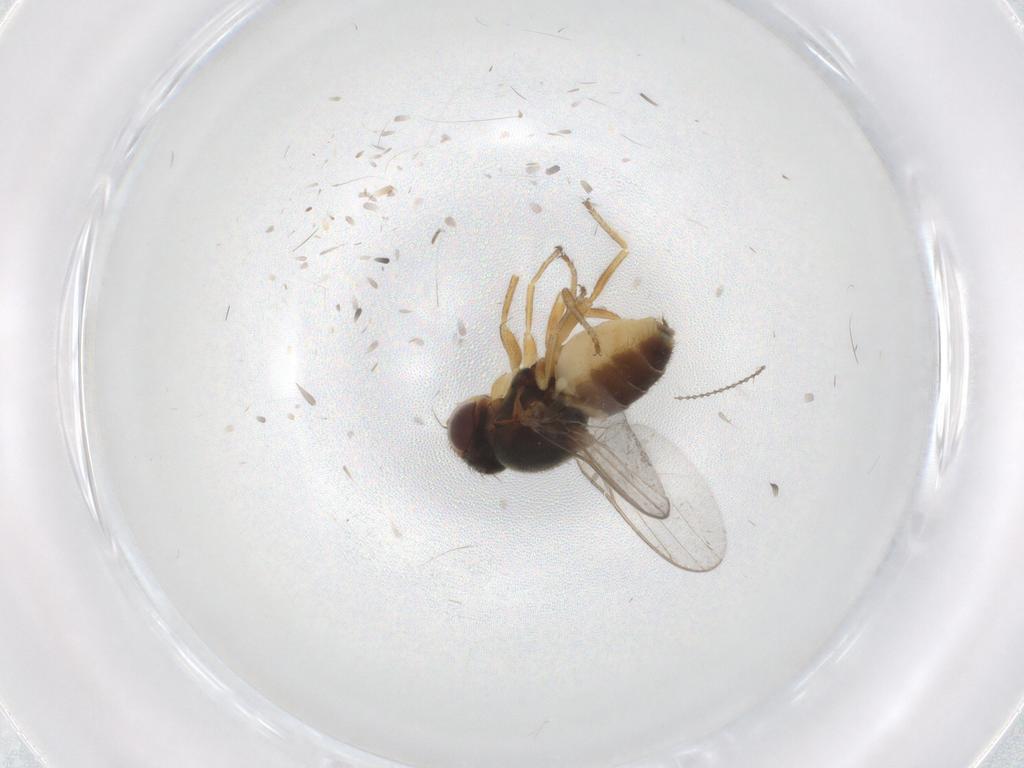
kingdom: Animalia
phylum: Arthropoda
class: Insecta
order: Diptera
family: Chloropidae
